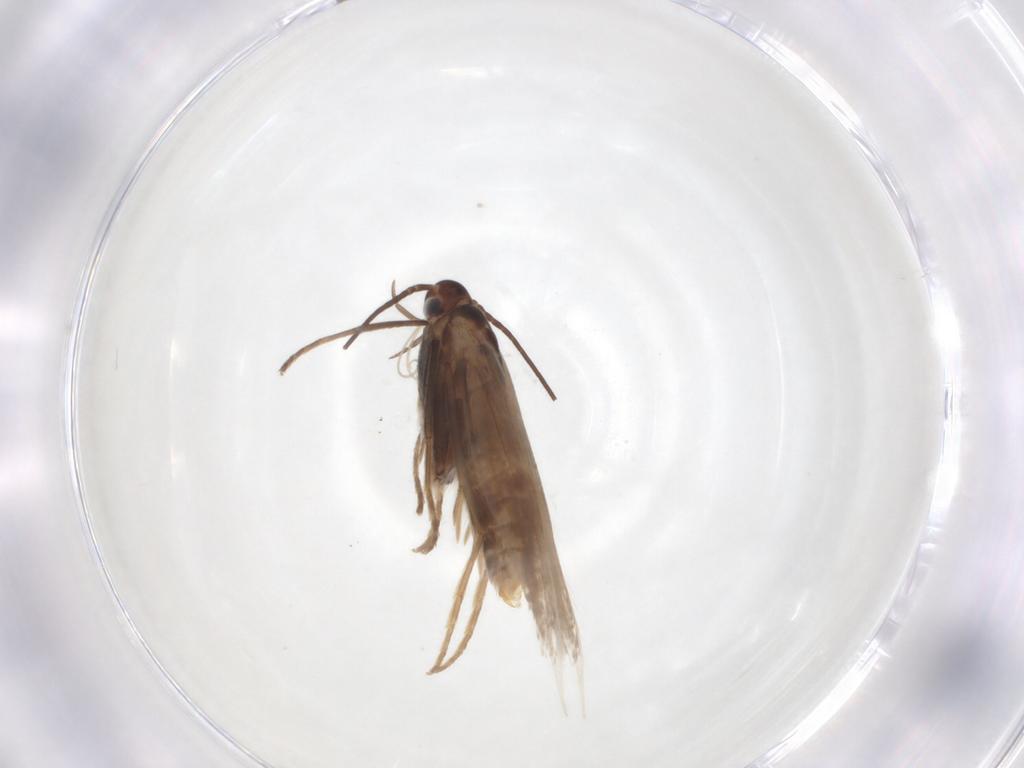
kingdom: Animalia
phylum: Arthropoda
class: Insecta
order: Lepidoptera
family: Coleophoridae
